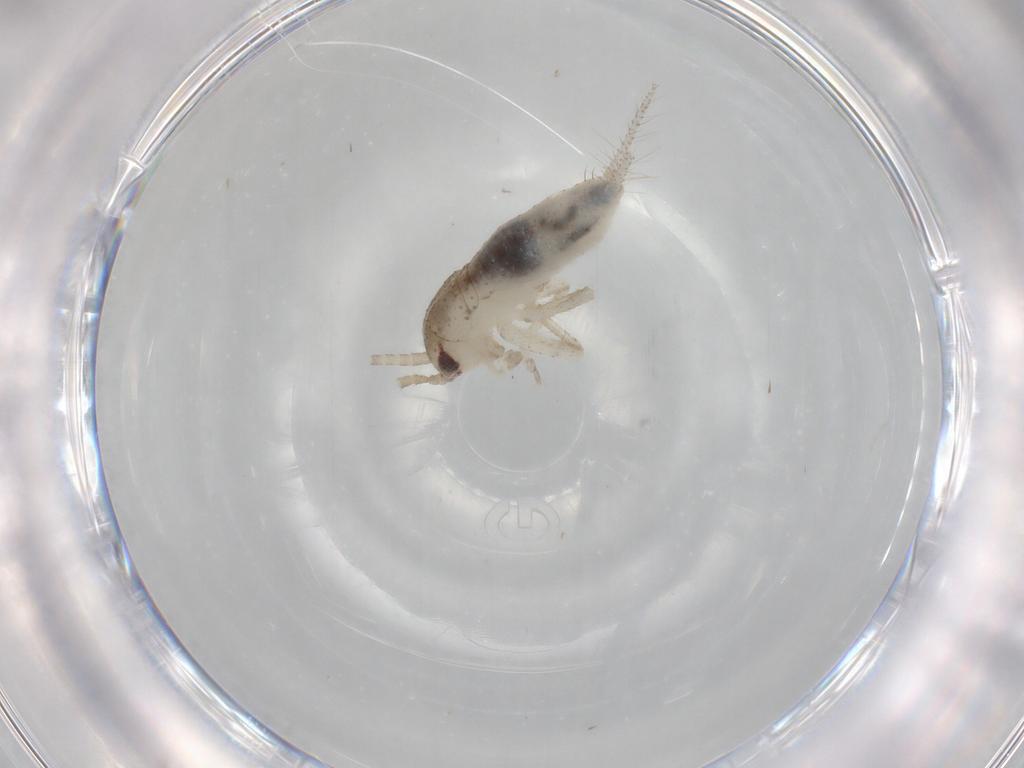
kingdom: Animalia
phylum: Arthropoda
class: Insecta
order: Orthoptera
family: Gryllidae
